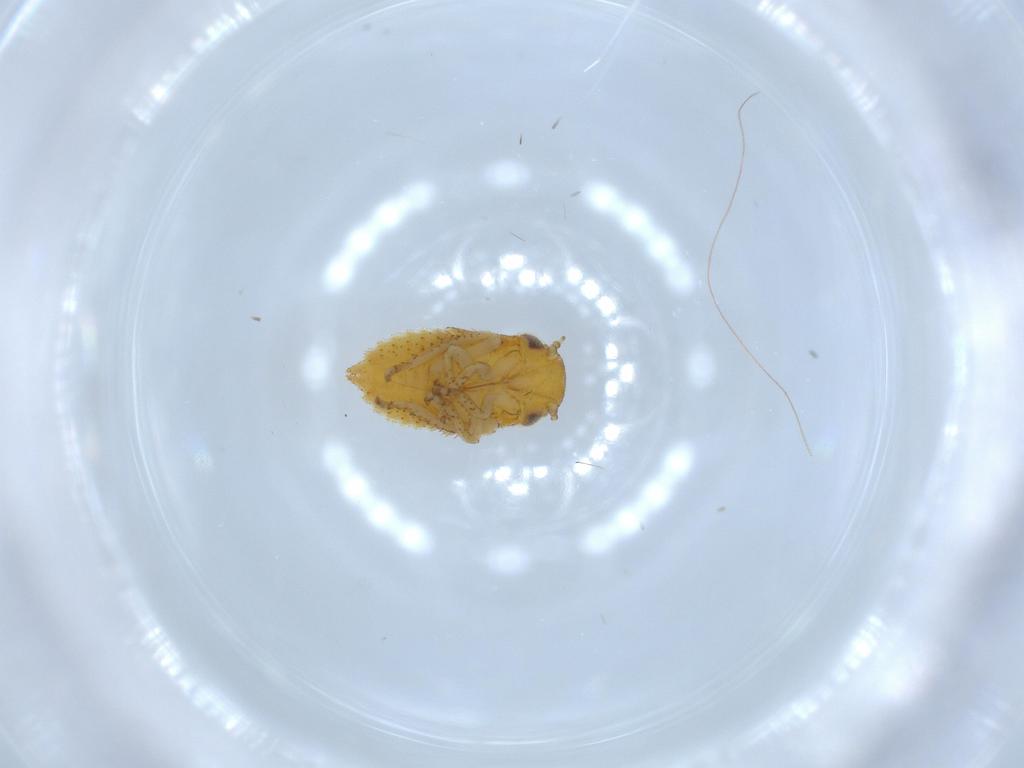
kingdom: Animalia
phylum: Arthropoda
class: Insecta
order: Hemiptera
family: Cicadellidae
